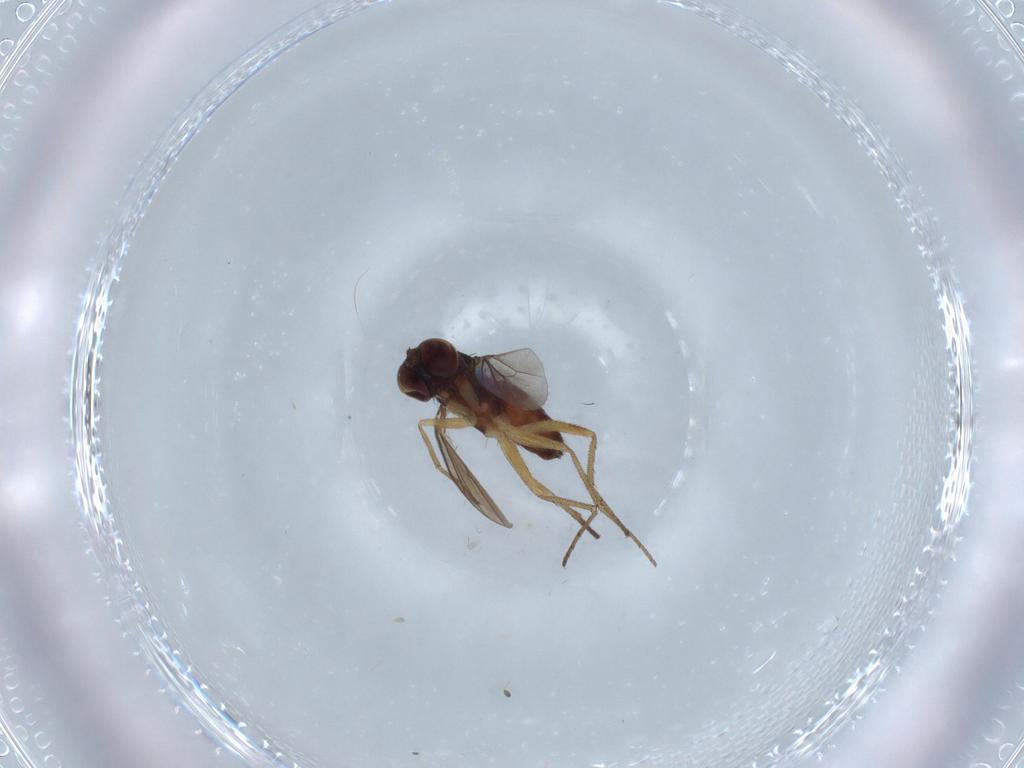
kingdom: Animalia
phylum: Arthropoda
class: Insecta
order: Diptera
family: Dolichopodidae
